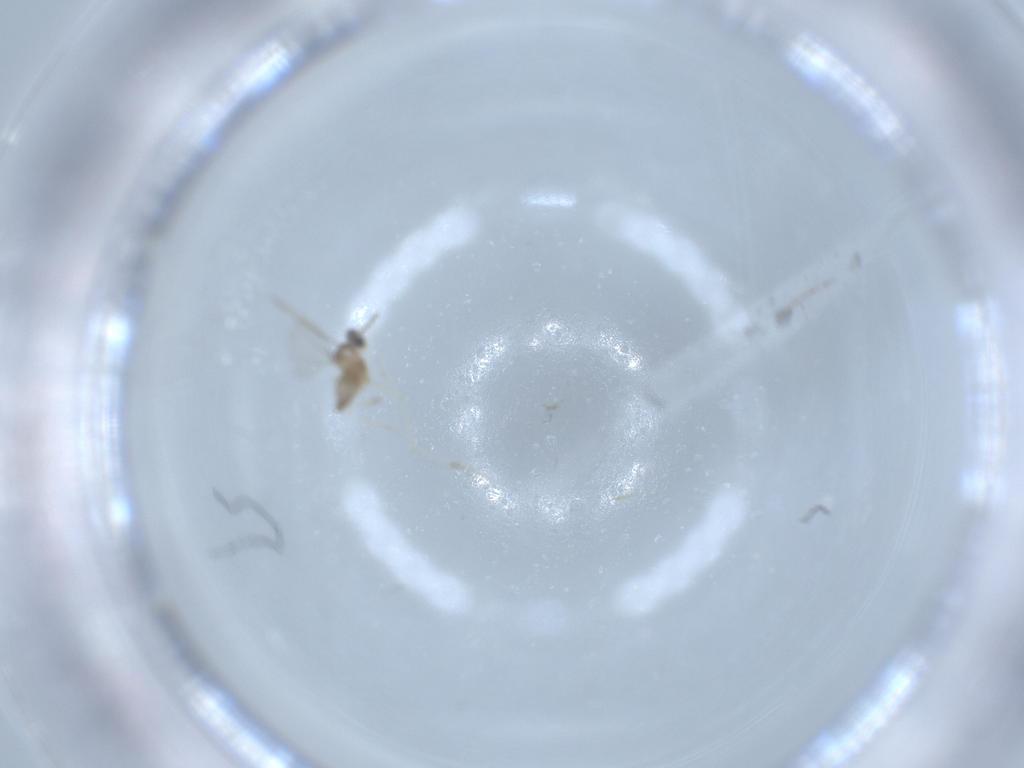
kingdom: Animalia
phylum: Arthropoda
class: Insecta
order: Diptera
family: Cecidomyiidae
